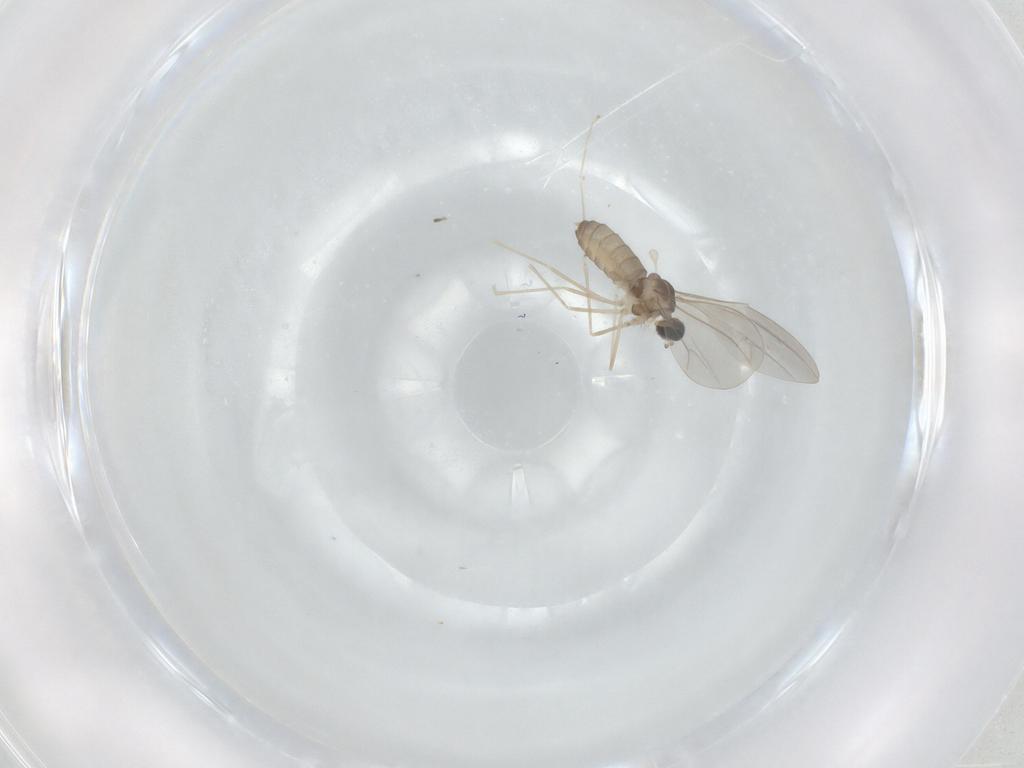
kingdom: Animalia
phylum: Arthropoda
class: Insecta
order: Diptera
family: Cecidomyiidae
